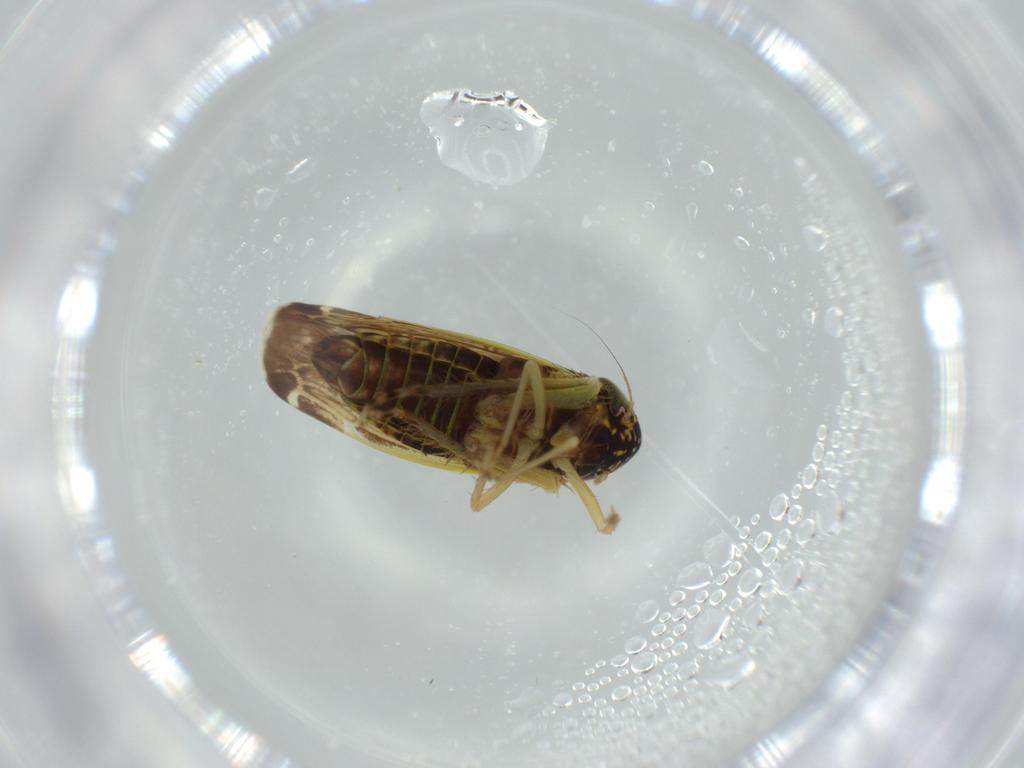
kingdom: Animalia
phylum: Arthropoda
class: Insecta
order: Hemiptera
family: Cicadellidae
